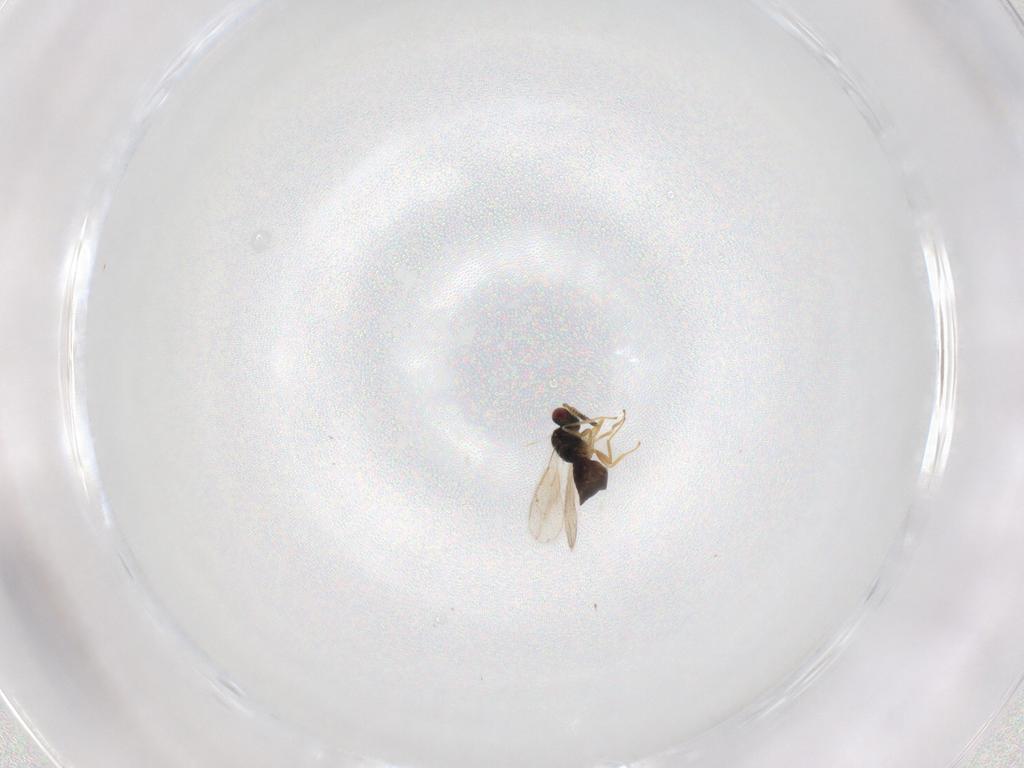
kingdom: Animalia
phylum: Arthropoda
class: Insecta
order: Hymenoptera
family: Tetracampidae
